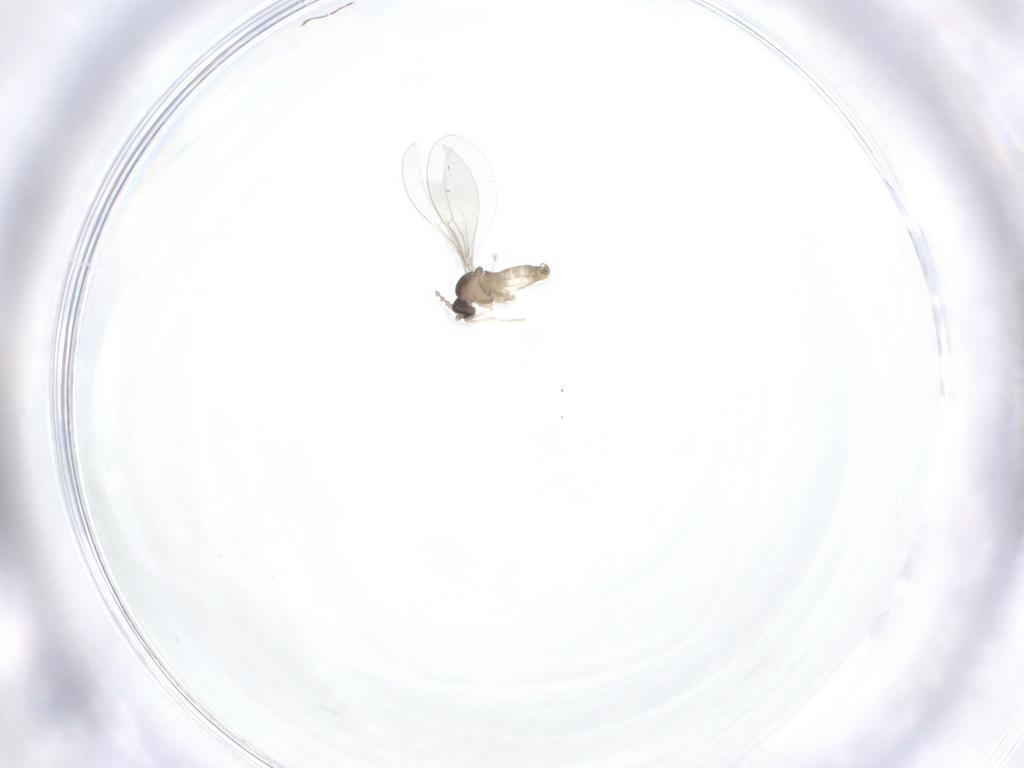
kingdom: Animalia
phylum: Arthropoda
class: Insecta
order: Diptera
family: Cecidomyiidae
